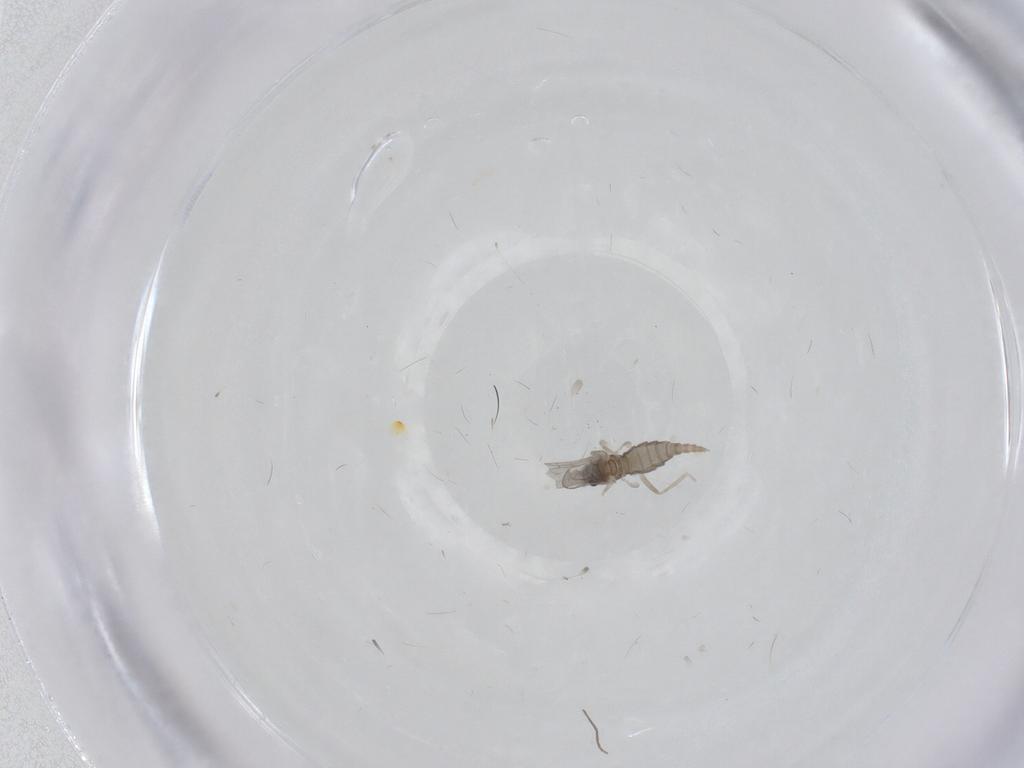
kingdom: Animalia
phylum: Arthropoda
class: Insecta
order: Diptera
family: Cecidomyiidae
